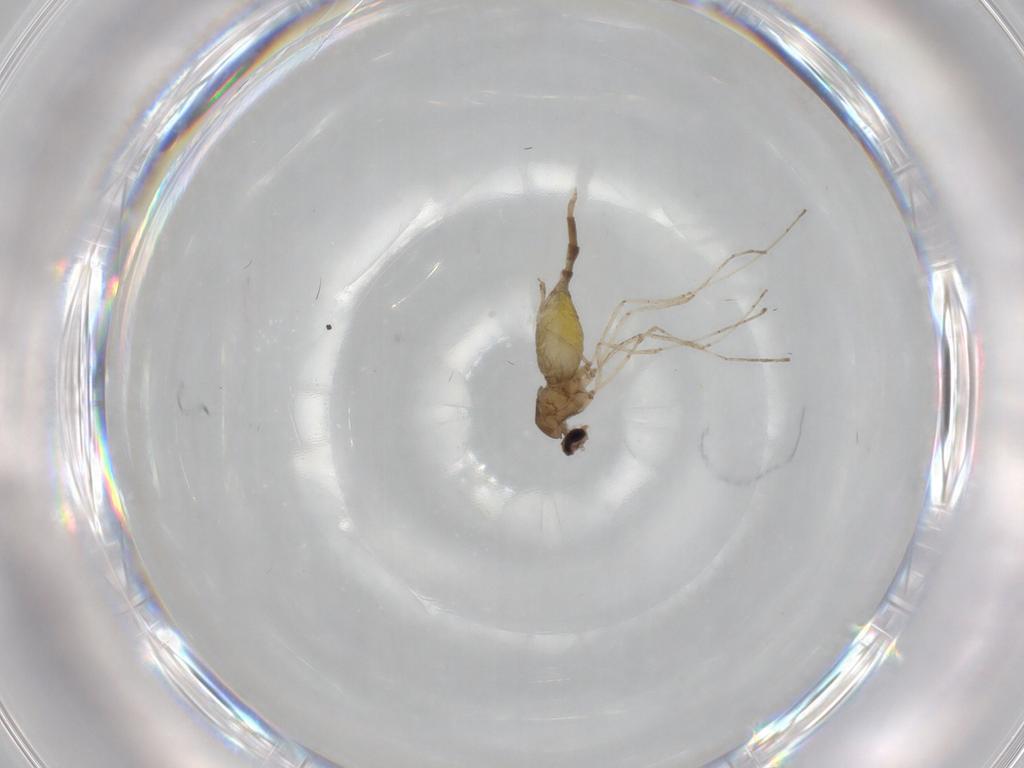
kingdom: Animalia
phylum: Arthropoda
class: Insecta
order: Diptera
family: Cecidomyiidae
